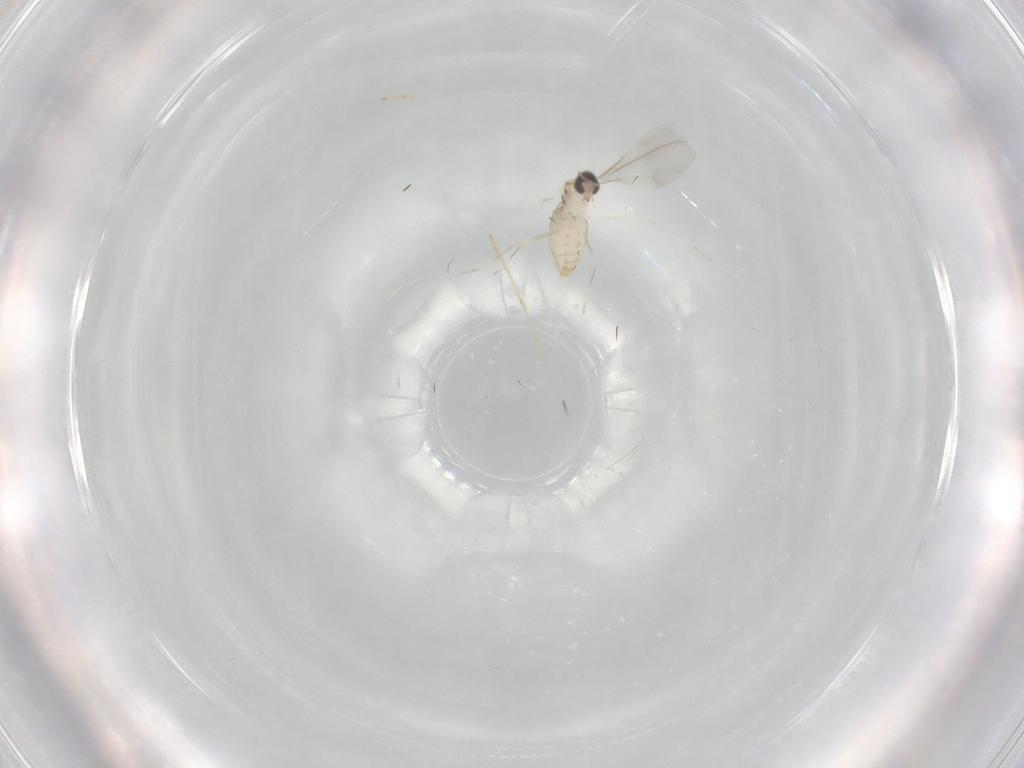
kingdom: Animalia
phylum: Arthropoda
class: Insecta
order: Diptera
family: Cecidomyiidae
